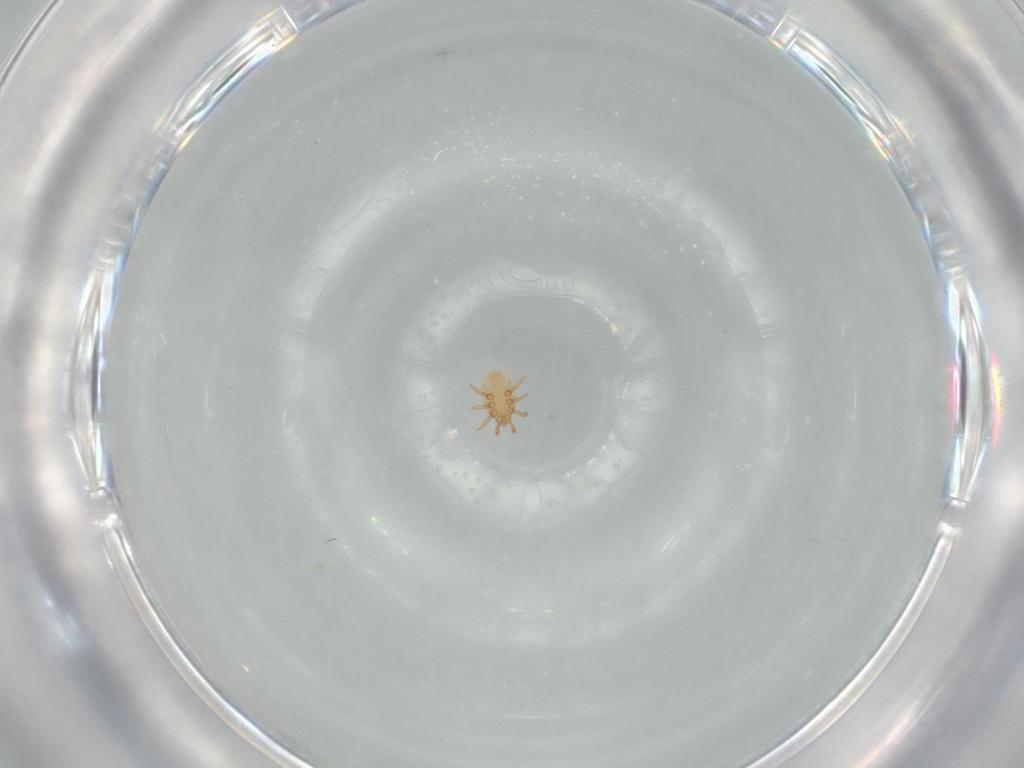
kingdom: Animalia
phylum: Arthropoda
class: Arachnida
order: Mesostigmata
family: Dinychidae
